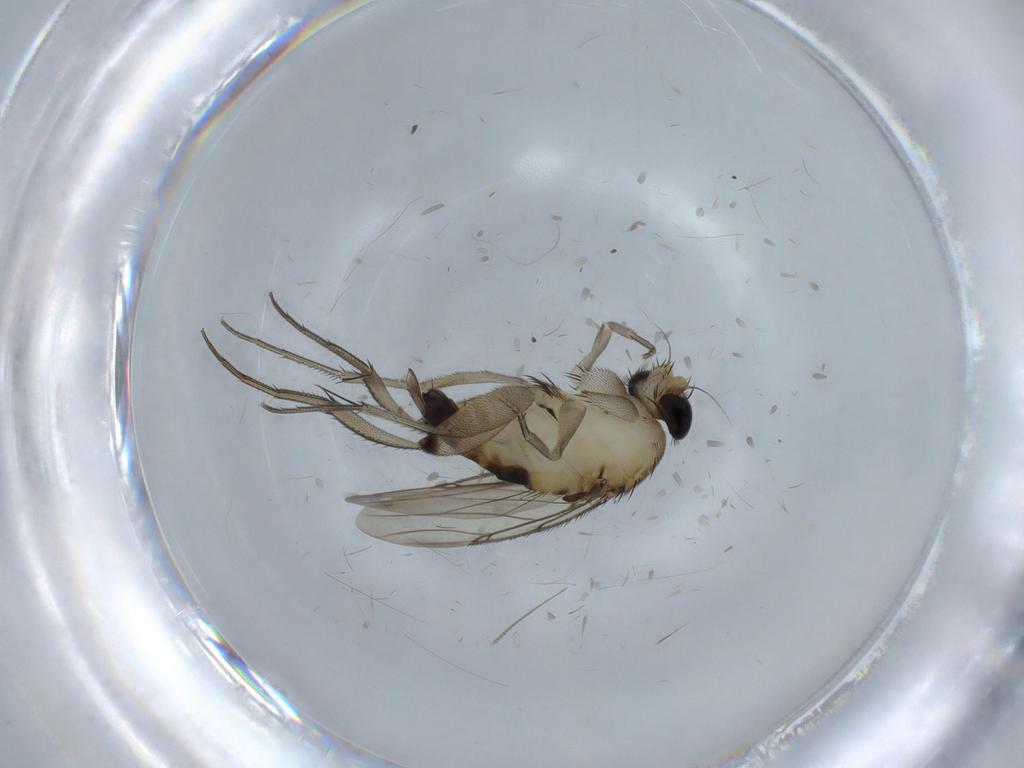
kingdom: Animalia
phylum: Arthropoda
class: Insecta
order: Diptera
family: Phoridae
